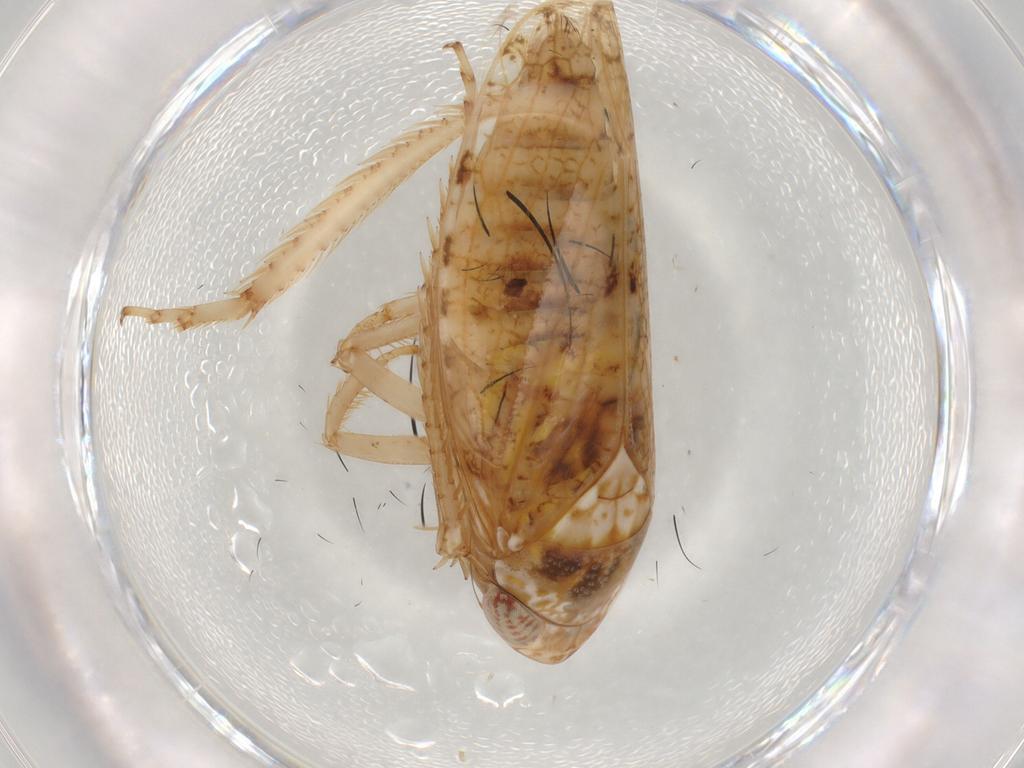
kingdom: Animalia
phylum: Arthropoda
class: Insecta
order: Hemiptera
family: Cicadellidae
